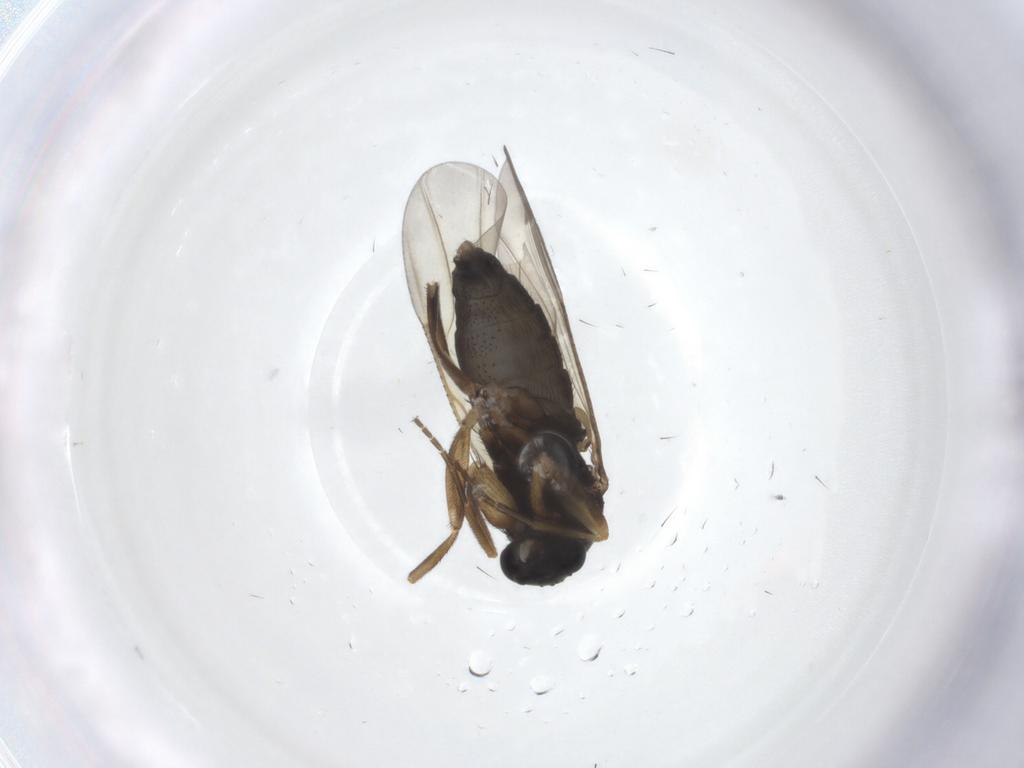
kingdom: Animalia
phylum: Arthropoda
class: Insecta
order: Diptera
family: Phoridae
